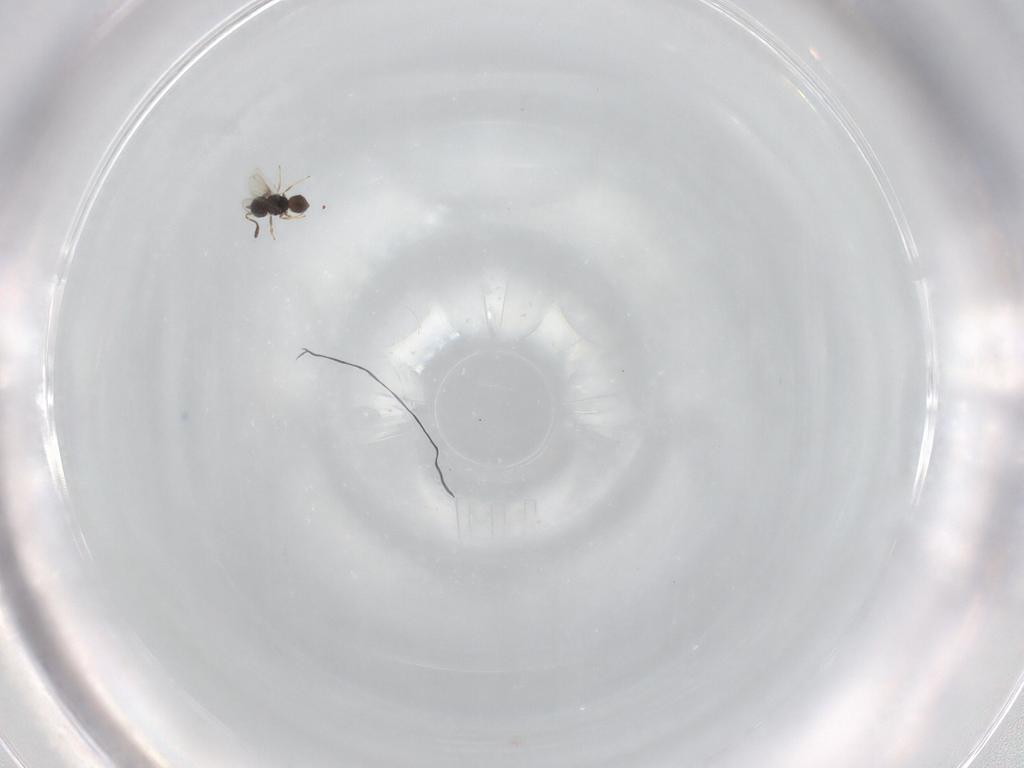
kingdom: Animalia
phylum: Arthropoda
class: Insecta
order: Hymenoptera
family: Scelionidae
